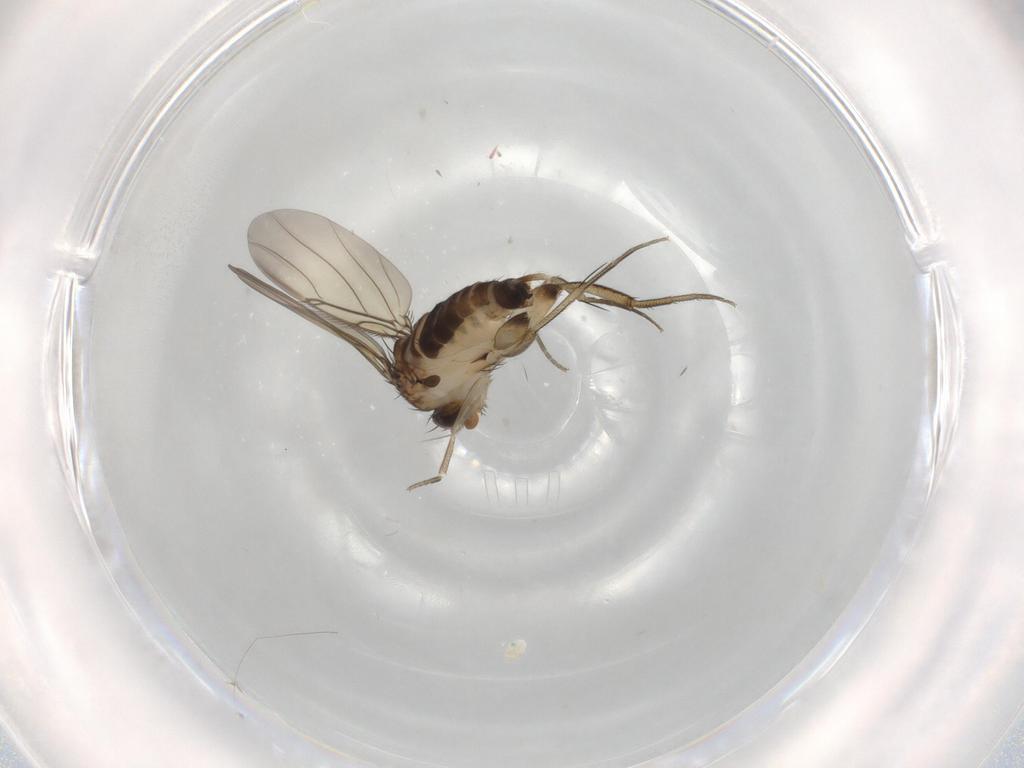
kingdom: Animalia
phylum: Arthropoda
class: Insecta
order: Diptera
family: Phoridae
